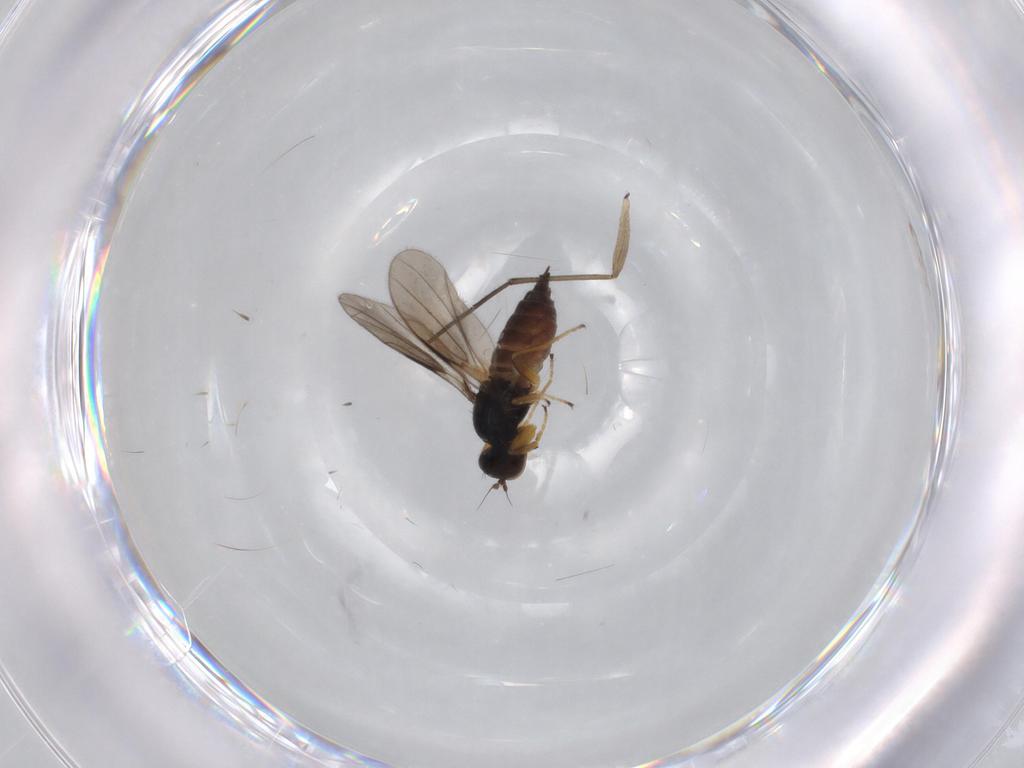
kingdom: Animalia
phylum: Arthropoda
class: Insecta
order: Diptera
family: Hybotidae
